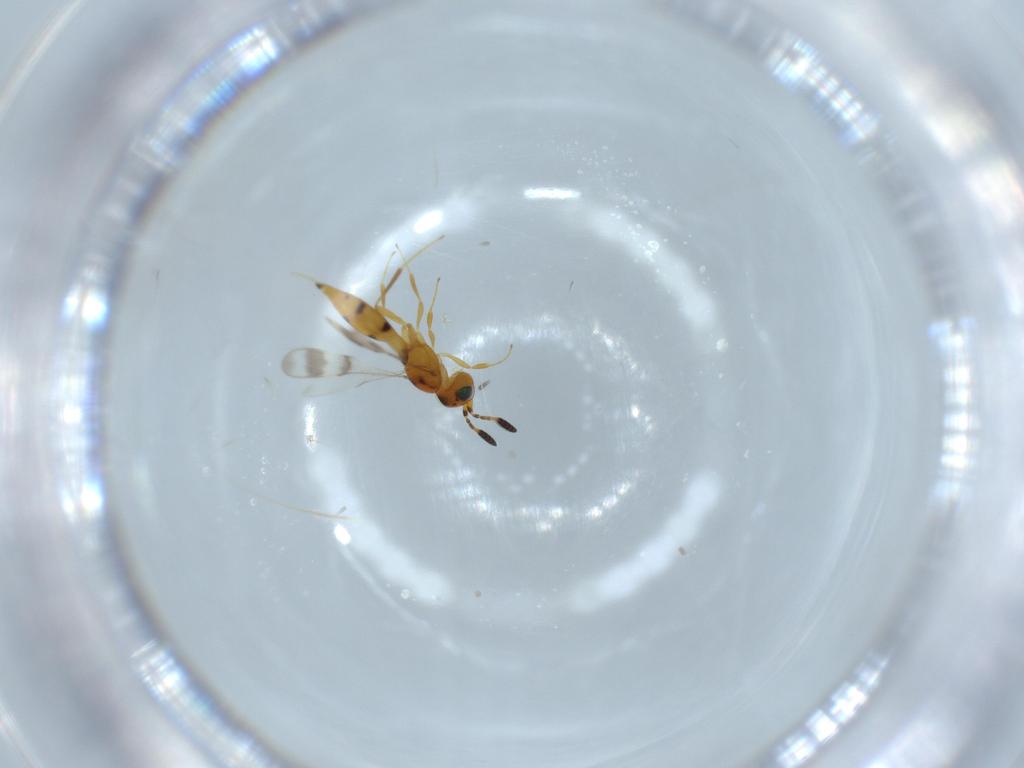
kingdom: Animalia
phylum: Arthropoda
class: Insecta
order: Hymenoptera
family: Scelionidae
